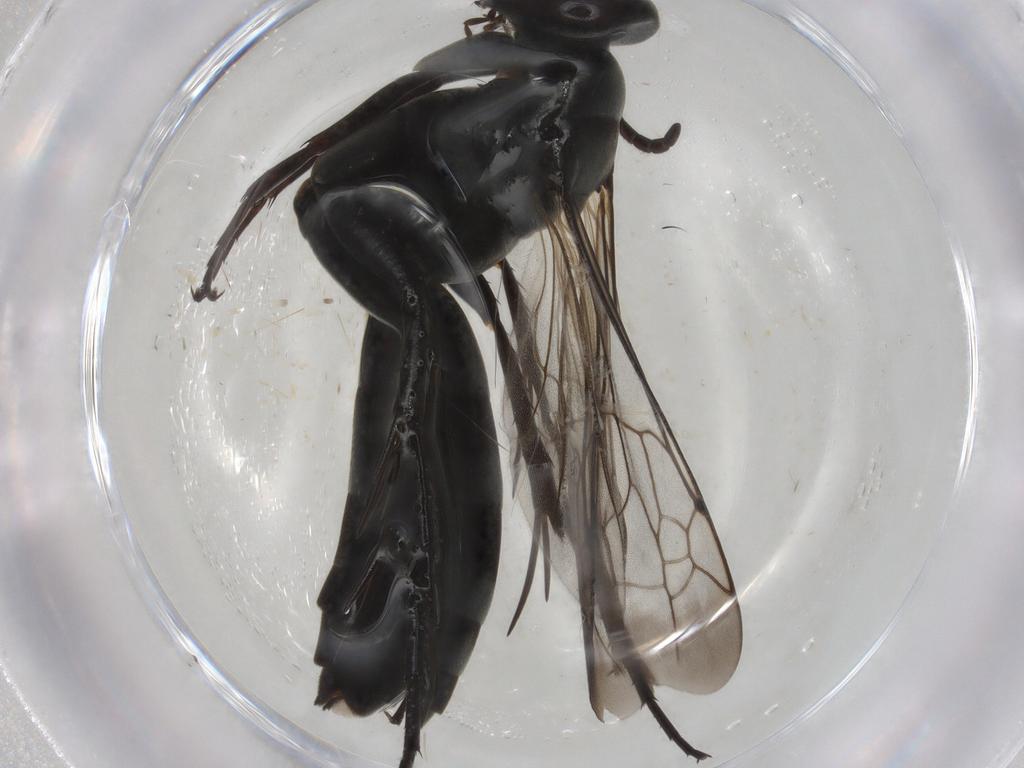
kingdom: Animalia
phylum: Arthropoda
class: Insecta
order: Hymenoptera
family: Pompilidae
